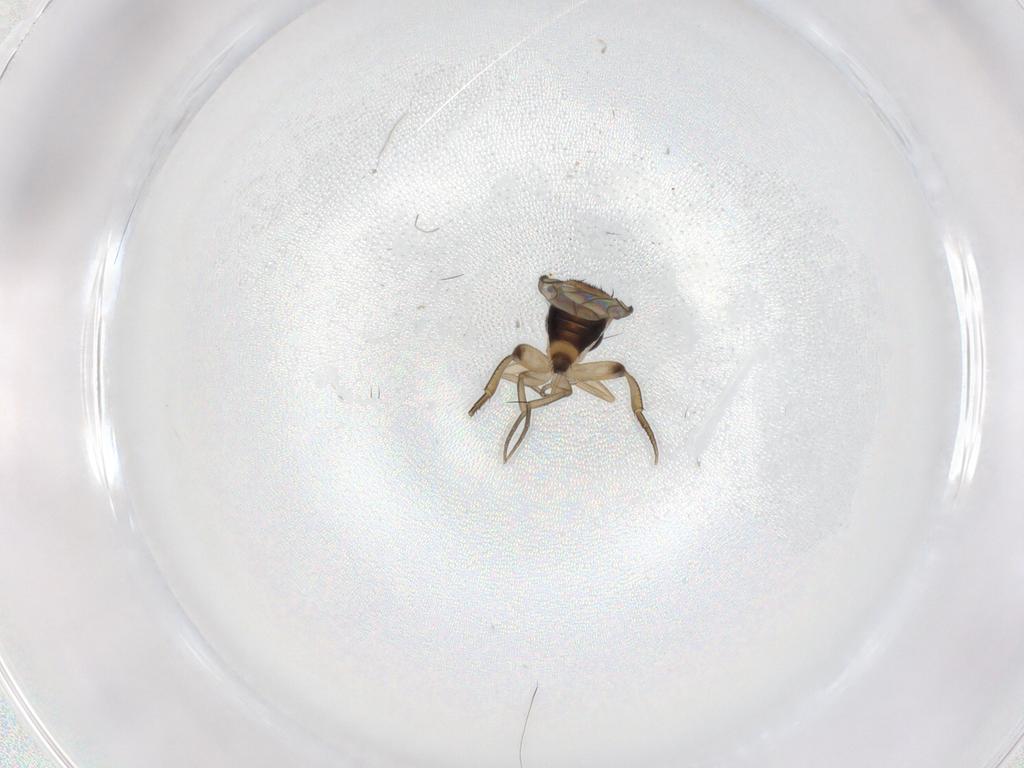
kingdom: Animalia
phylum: Arthropoda
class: Insecta
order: Diptera
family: Phoridae
